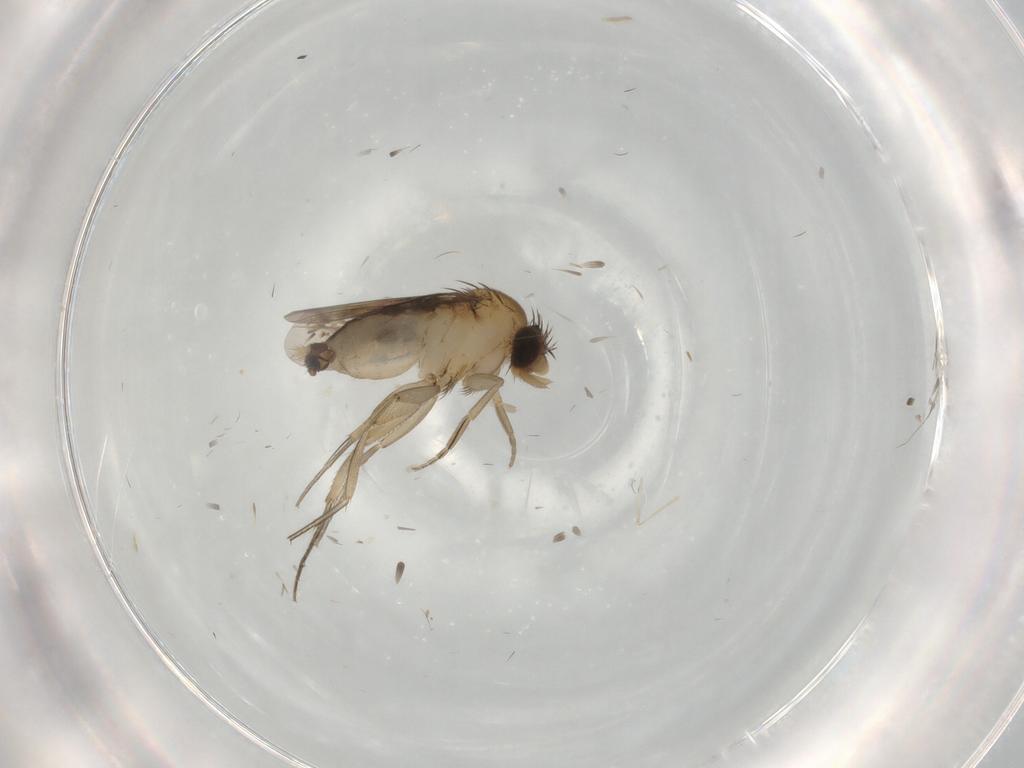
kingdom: Animalia
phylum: Arthropoda
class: Insecta
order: Diptera
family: Phoridae
